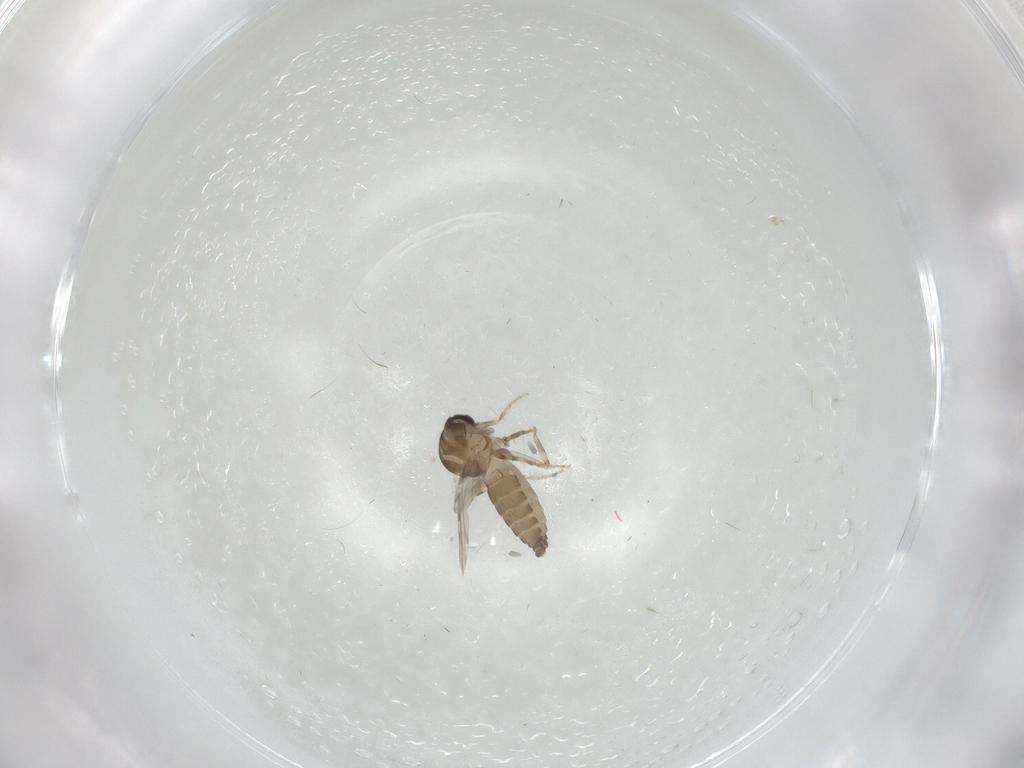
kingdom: Animalia
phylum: Arthropoda
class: Insecta
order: Diptera
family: Ceratopogonidae
